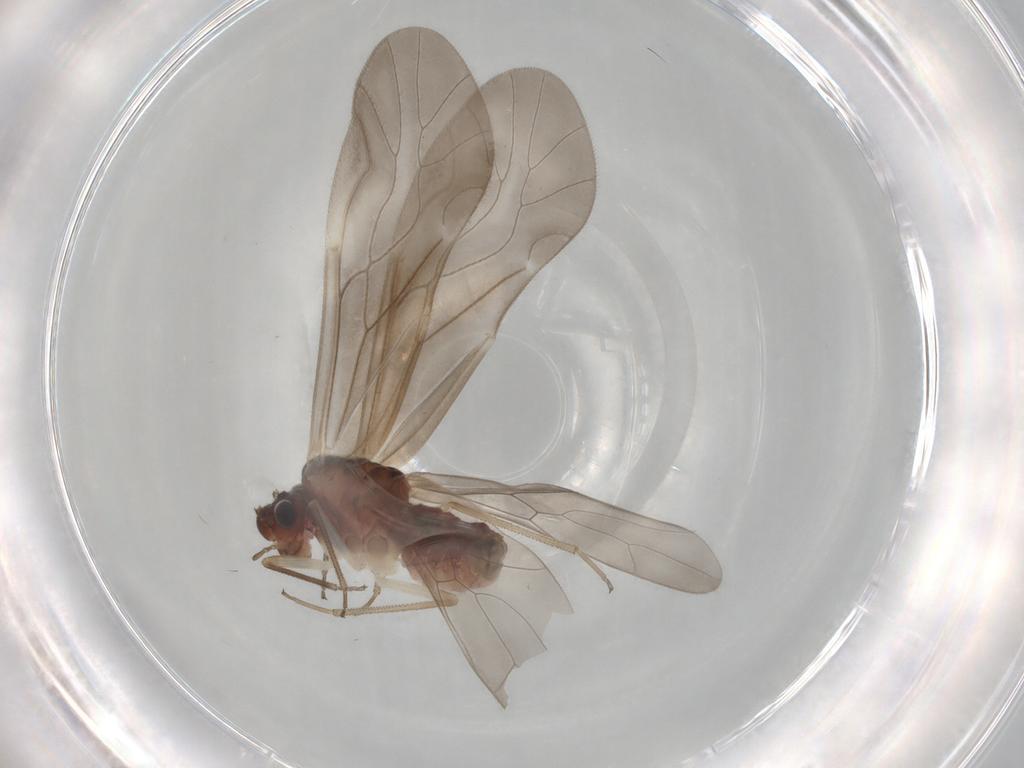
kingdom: Animalia
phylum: Arthropoda
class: Insecta
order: Psocodea
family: Caeciliusidae
